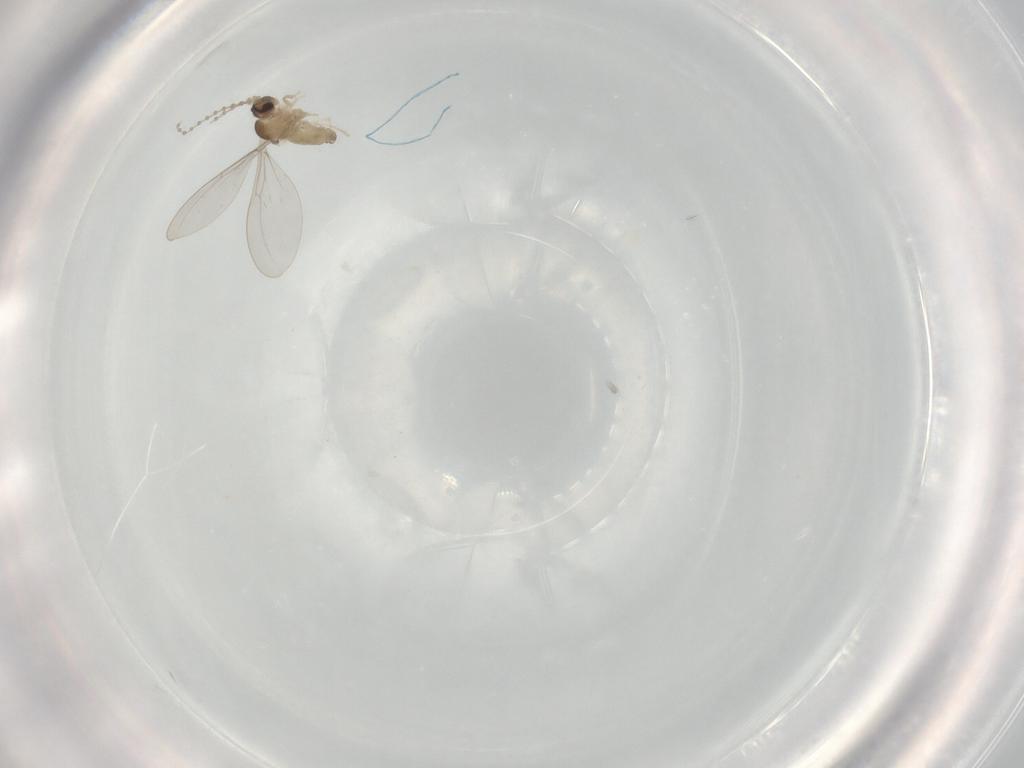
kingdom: Animalia
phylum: Arthropoda
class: Insecta
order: Diptera
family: Cecidomyiidae
